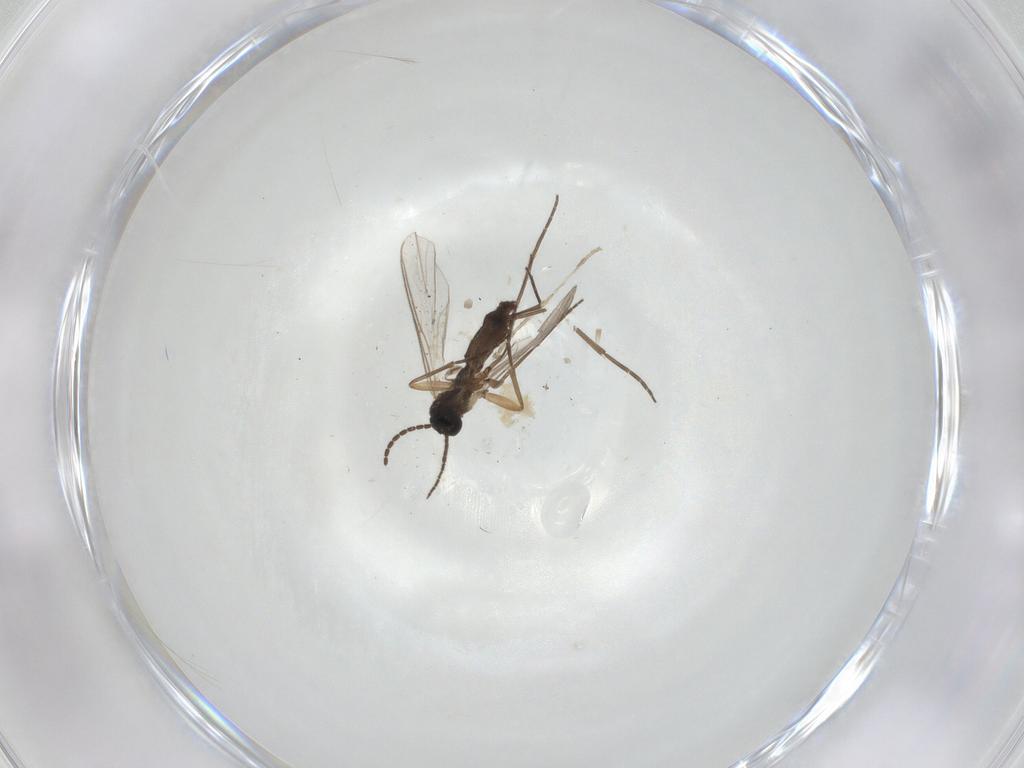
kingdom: Animalia
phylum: Arthropoda
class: Insecta
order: Diptera
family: Sciaridae
